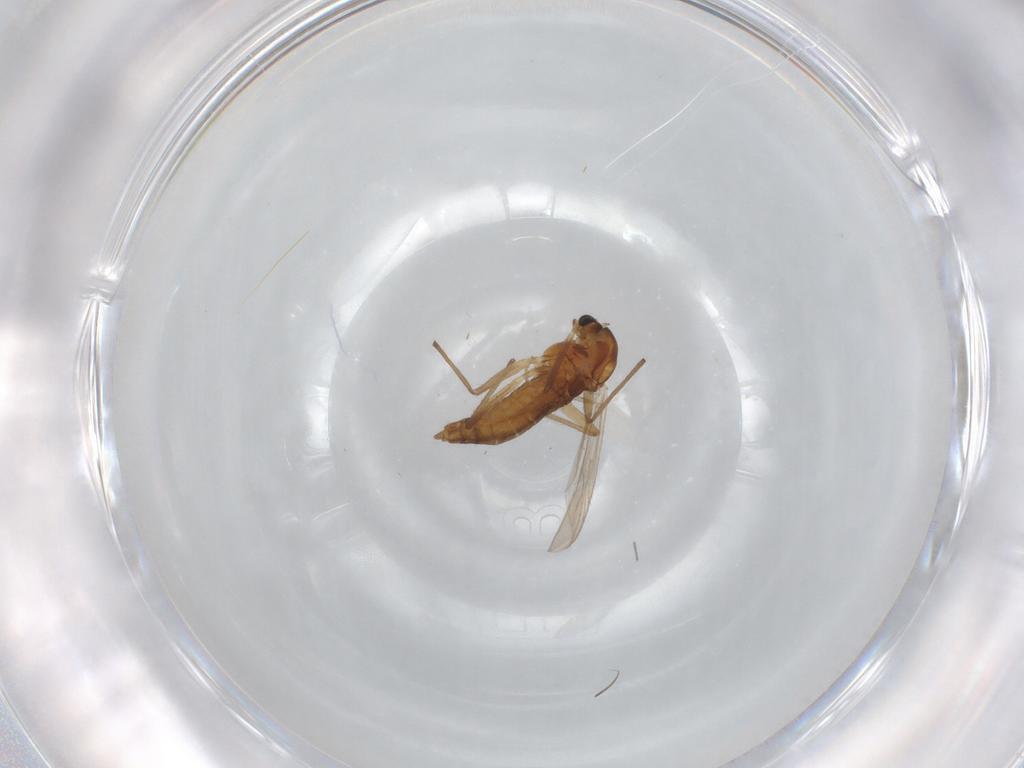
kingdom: Animalia
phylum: Arthropoda
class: Insecta
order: Diptera
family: Chironomidae
